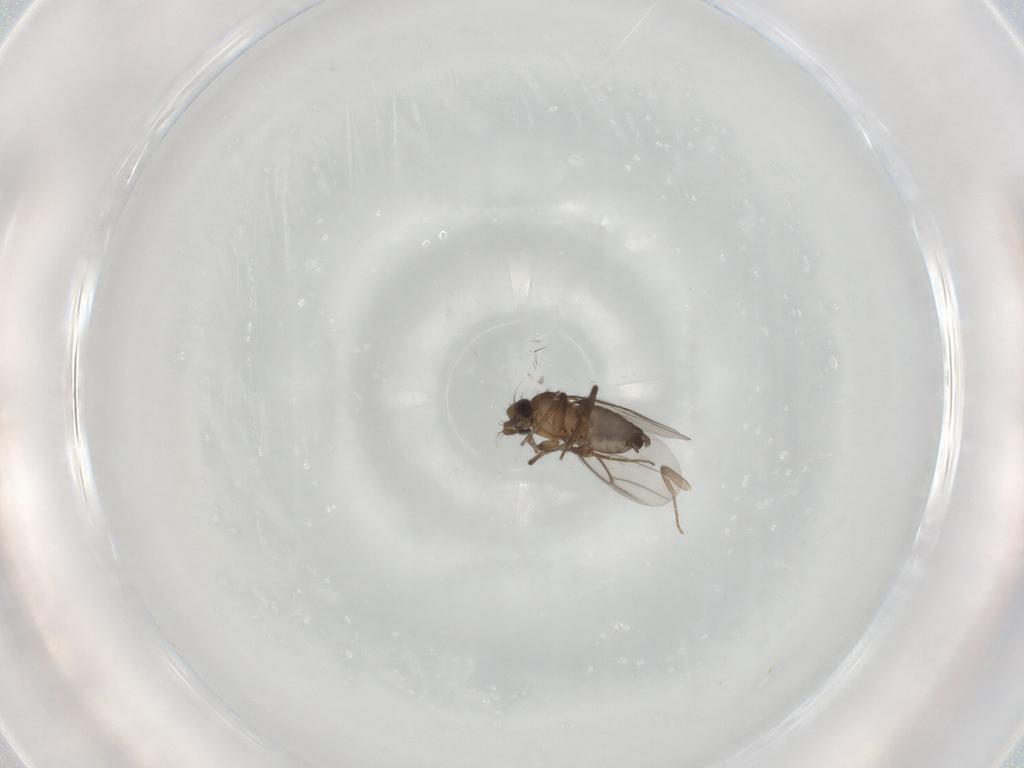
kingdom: Animalia
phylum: Arthropoda
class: Insecta
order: Diptera
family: Phoridae
